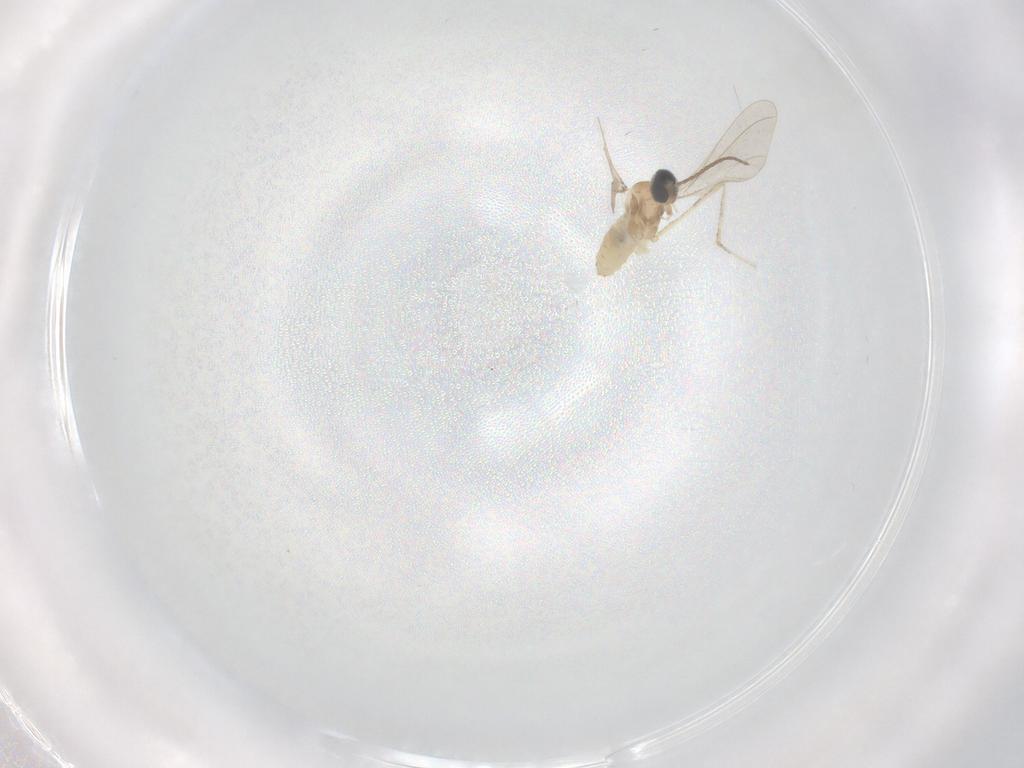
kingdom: Animalia
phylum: Arthropoda
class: Insecta
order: Diptera
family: Cecidomyiidae
